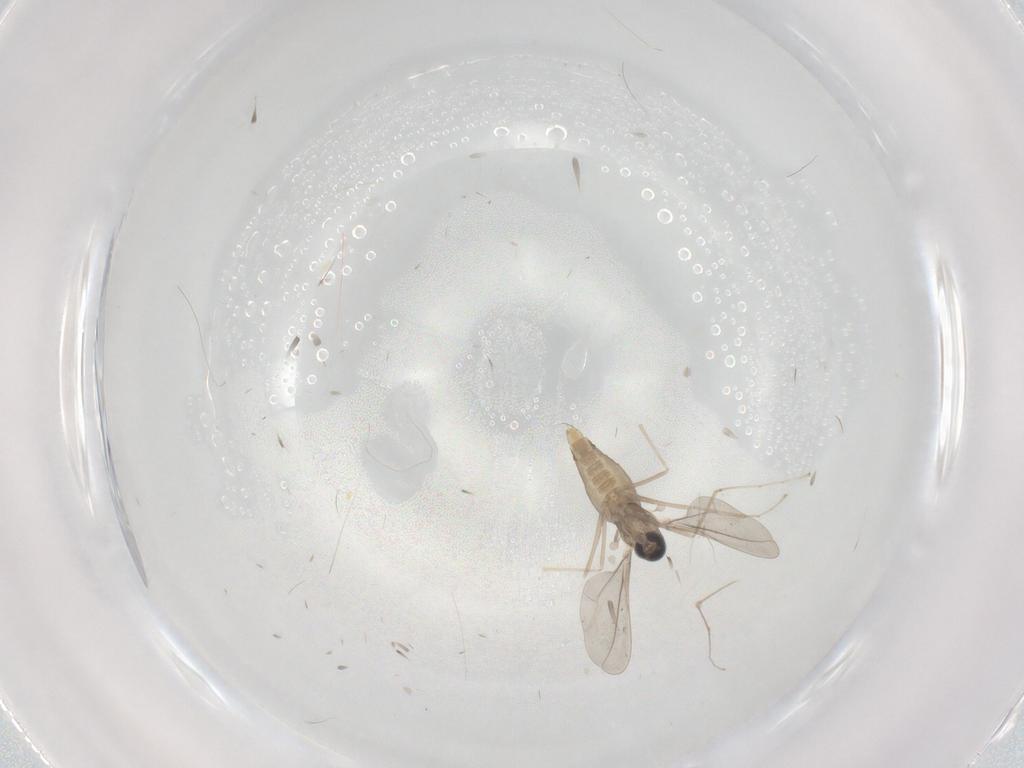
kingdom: Animalia
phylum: Arthropoda
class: Insecta
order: Diptera
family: Cecidomyiidae
